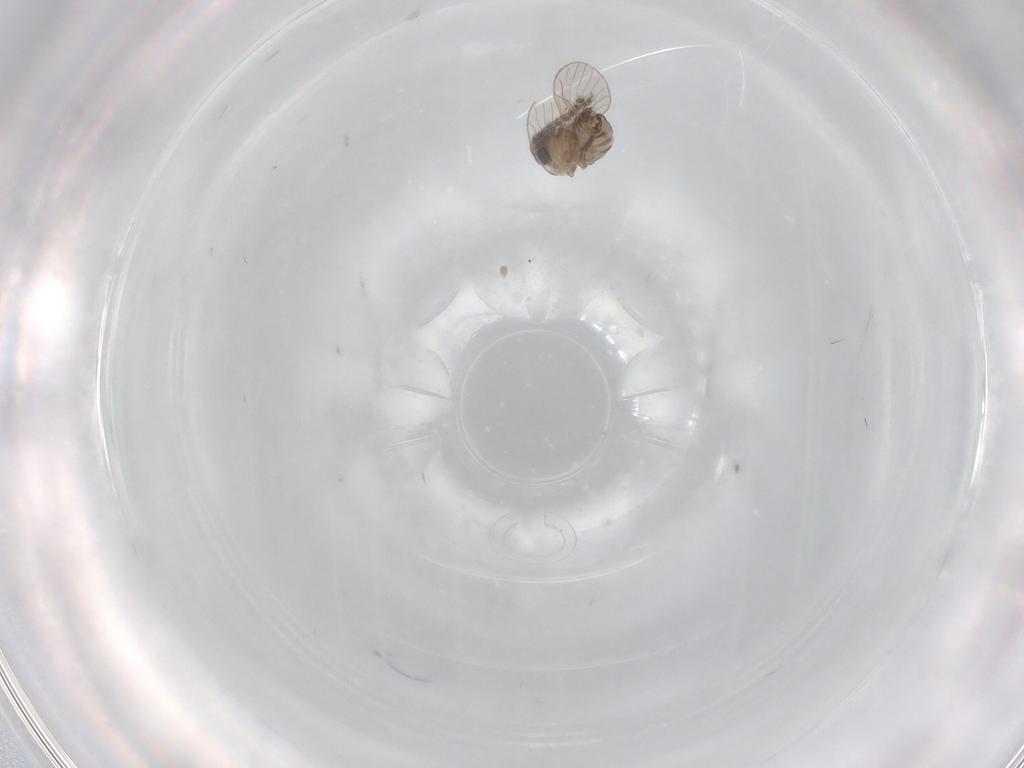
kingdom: Animalia
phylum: Arthropoda
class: Insecta
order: Diptera
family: Psychodidae
